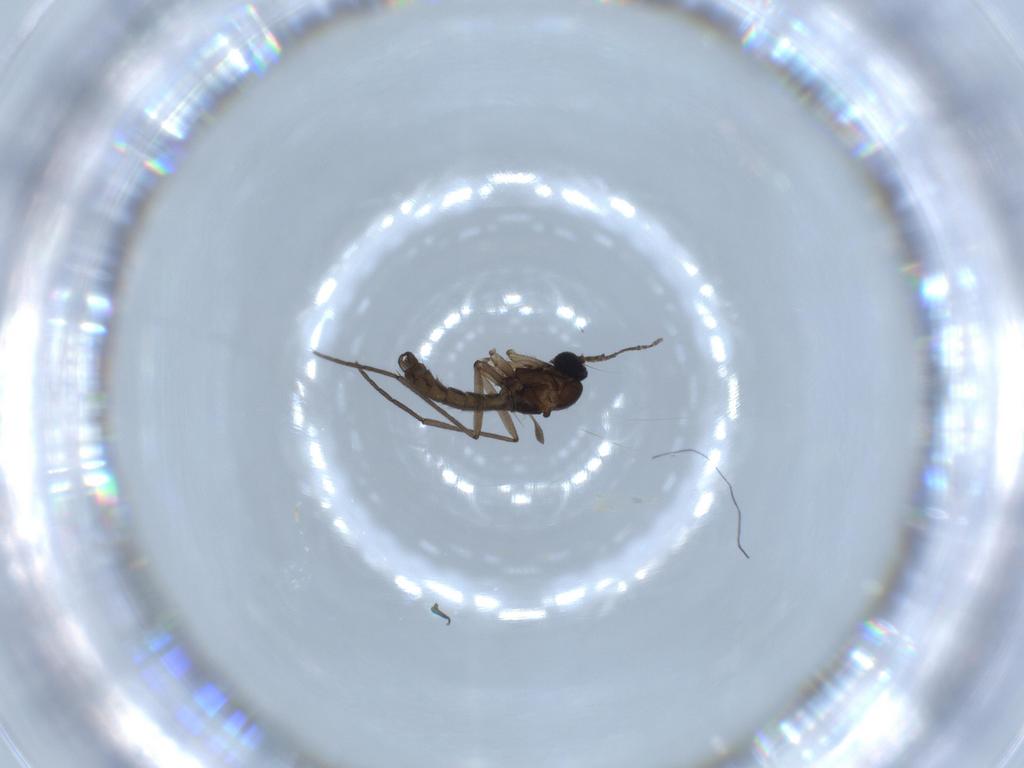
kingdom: Animalia
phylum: Arthropoda
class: Insecta
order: Diptera
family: Sciaridae
